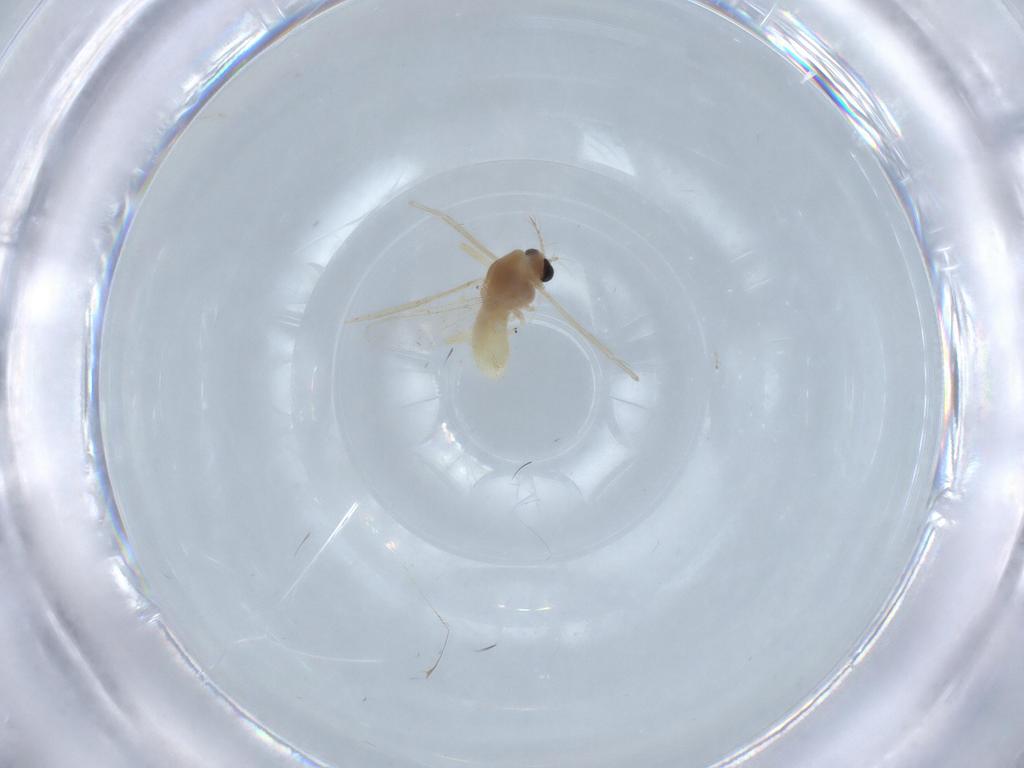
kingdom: Animalia
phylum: Arthropoda
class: Insecta
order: Diptera
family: Chironomidae
